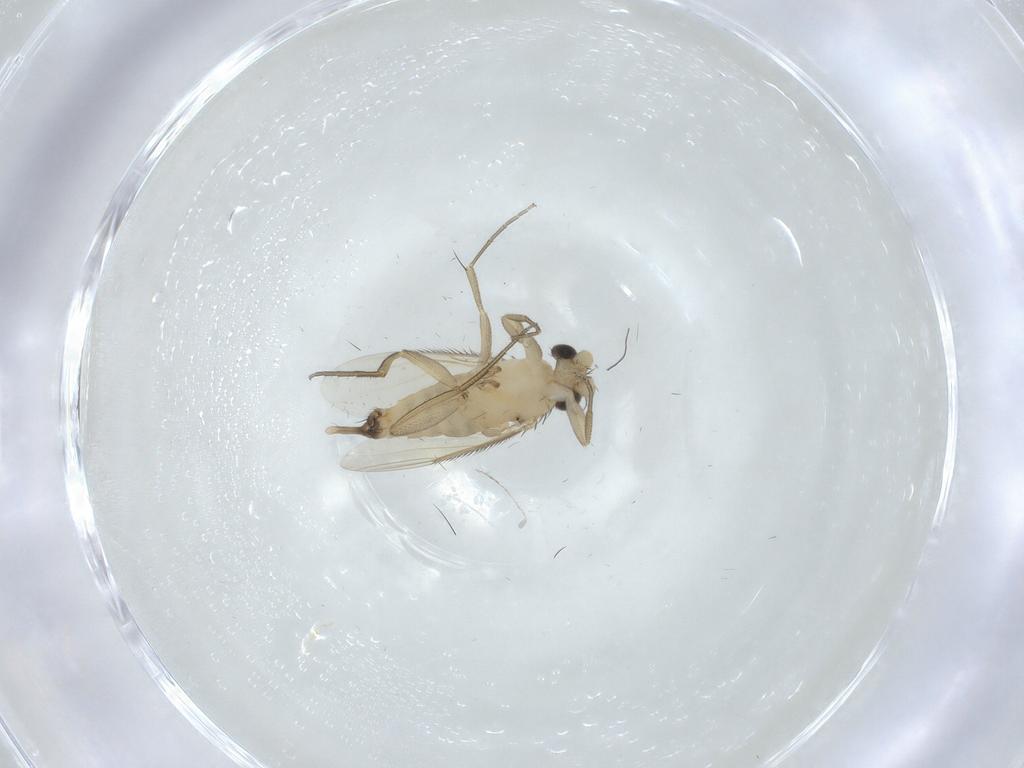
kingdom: Animalia
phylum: Arthropoda
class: Insecta
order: Diptera
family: Phoridae
